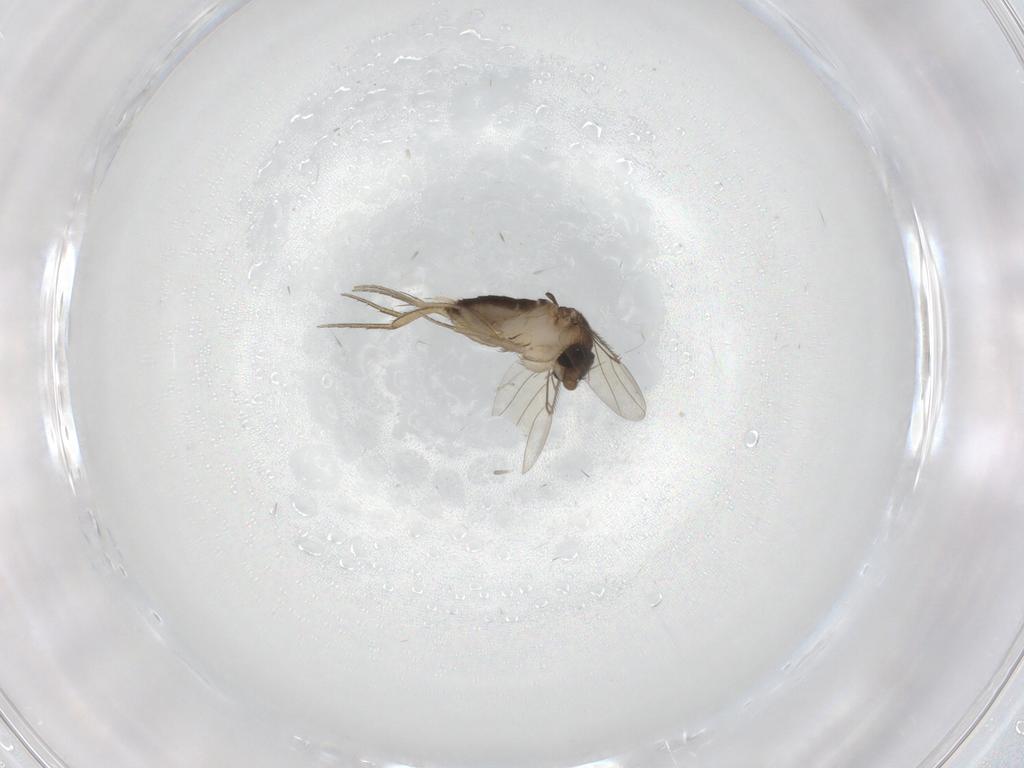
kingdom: Animalia
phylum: Arthropoda
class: Insecta
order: Diptera
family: Phoridae
